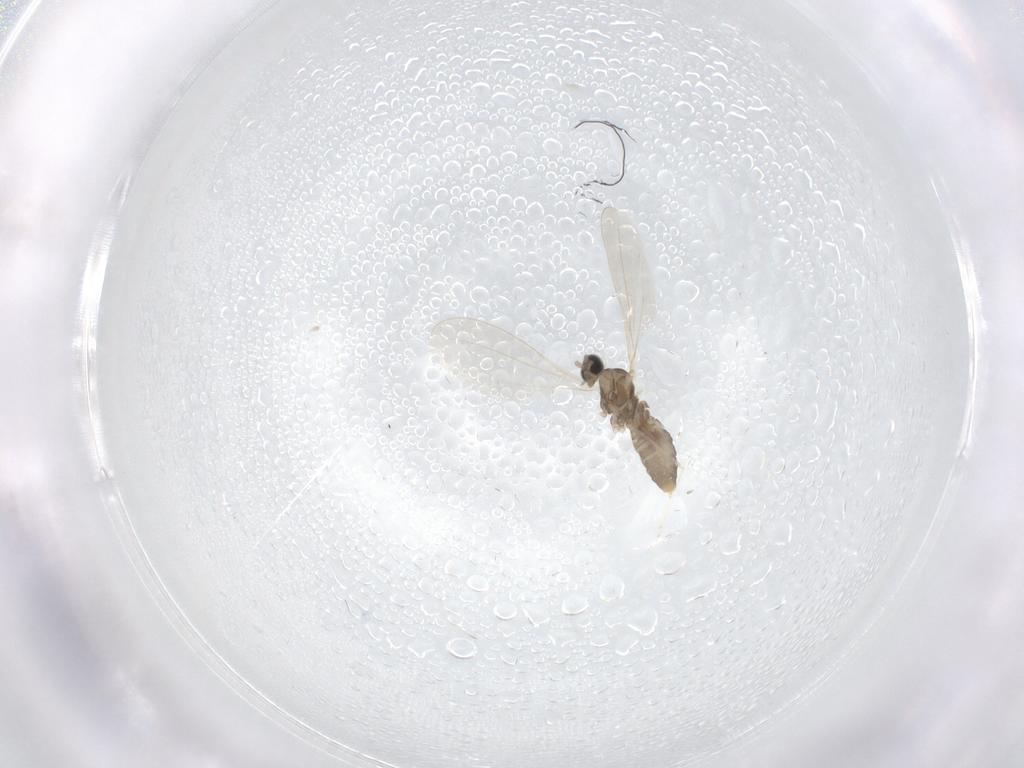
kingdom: Animalia
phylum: Arthropoda
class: Insecta
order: Diptera
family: Cecidomyiidae
